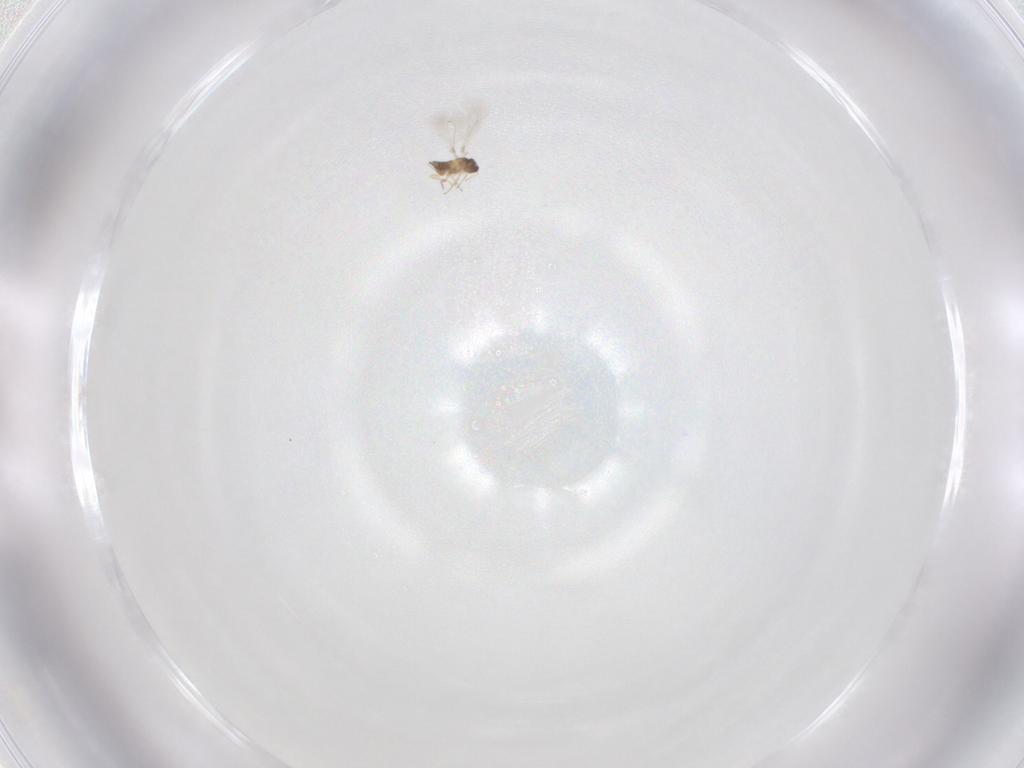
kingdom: Animalia
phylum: Arthropoda
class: Insecta
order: Hymenoptera
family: Mymaridae
